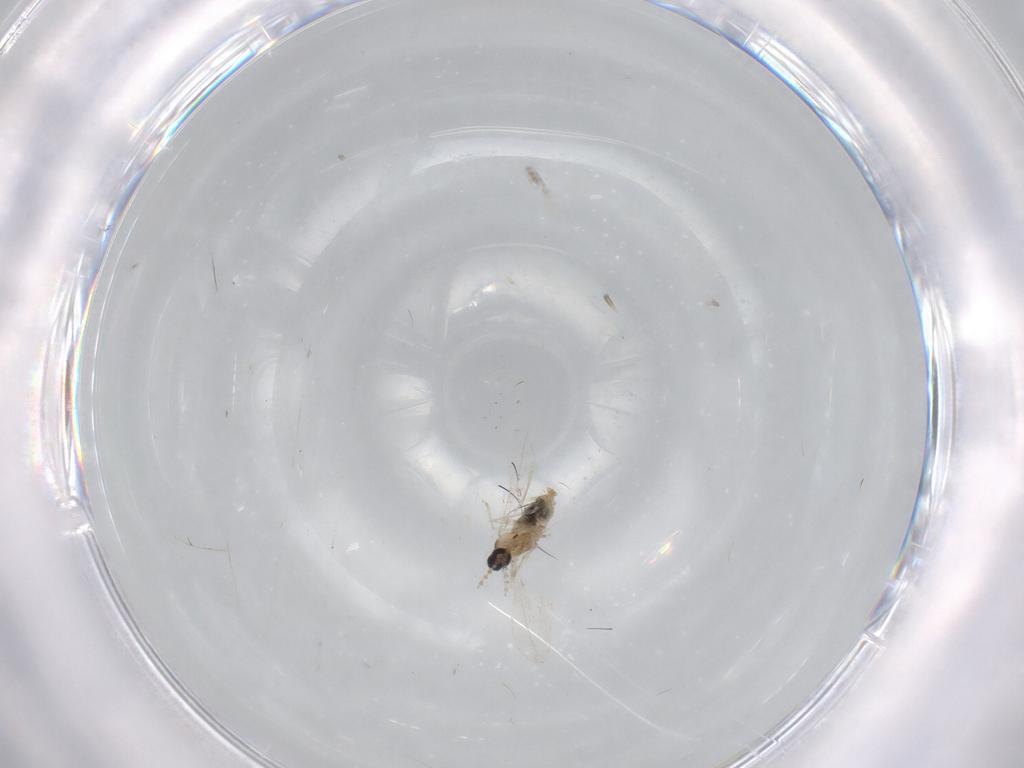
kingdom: Animalia
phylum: Arthropoda
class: Insecta
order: Diptera
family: Cecidomyiidae
